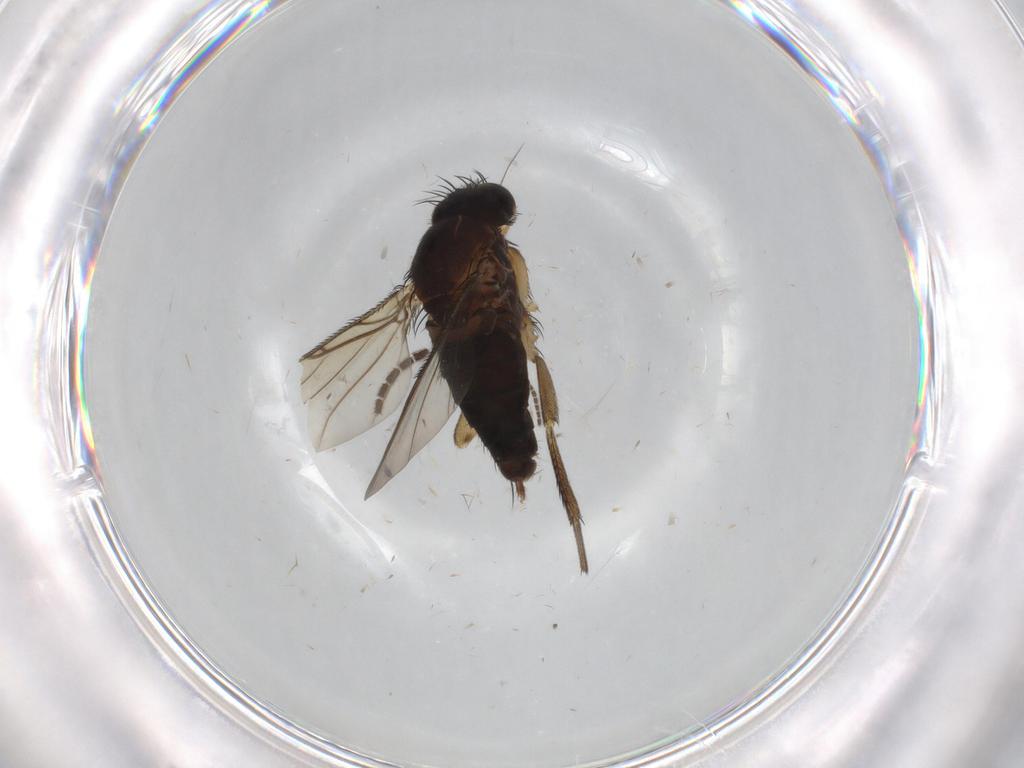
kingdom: Animalia
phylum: Arthropoda
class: Insecta
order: Diptera
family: Phoridae
